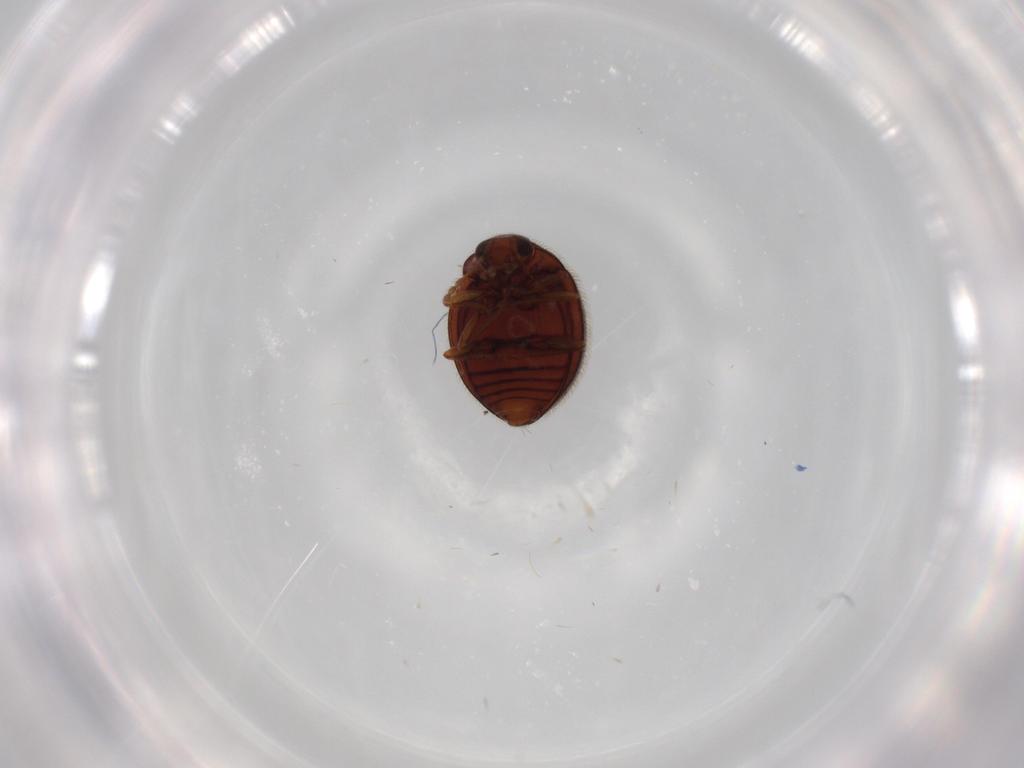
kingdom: Animalia
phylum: Arthropoda
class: Insecta
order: Coleoptera
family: Anamorphidae
